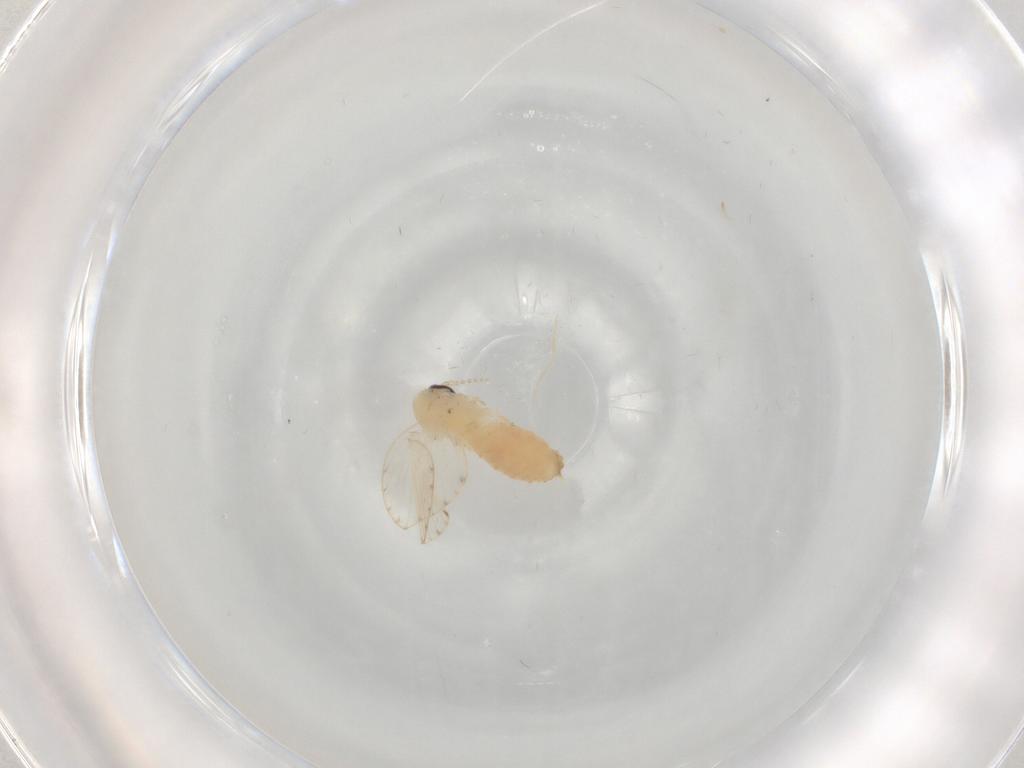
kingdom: Animalia
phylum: Arthropoda
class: Insecta
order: Diptera
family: Psychodidae
